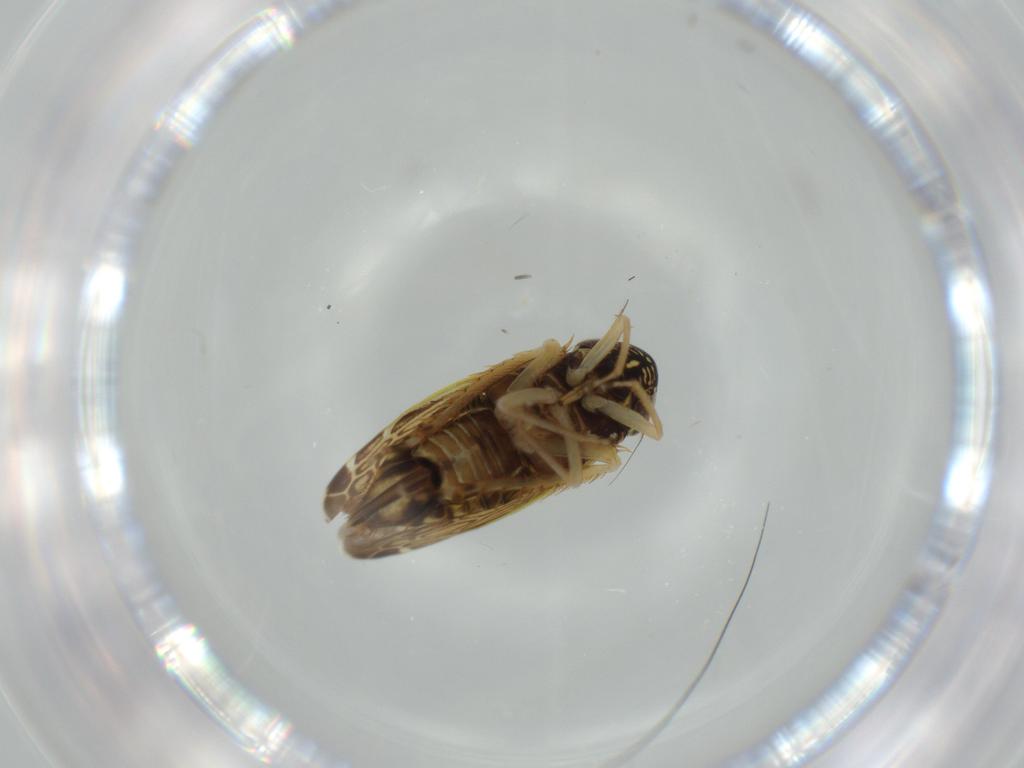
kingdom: Animalia
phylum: Arthropoda
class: Insecta
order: Hemiptera
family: Cicadellidae
